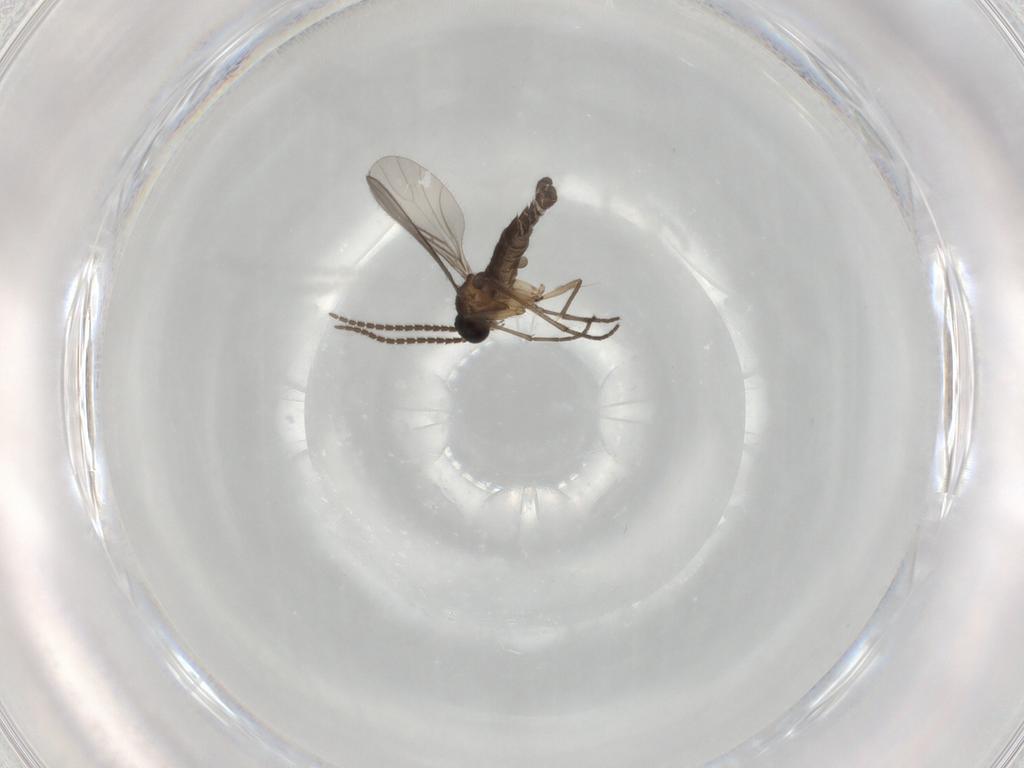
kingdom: Animalia
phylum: Arthropoda
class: Insecta
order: Diptera
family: Sciaridae
